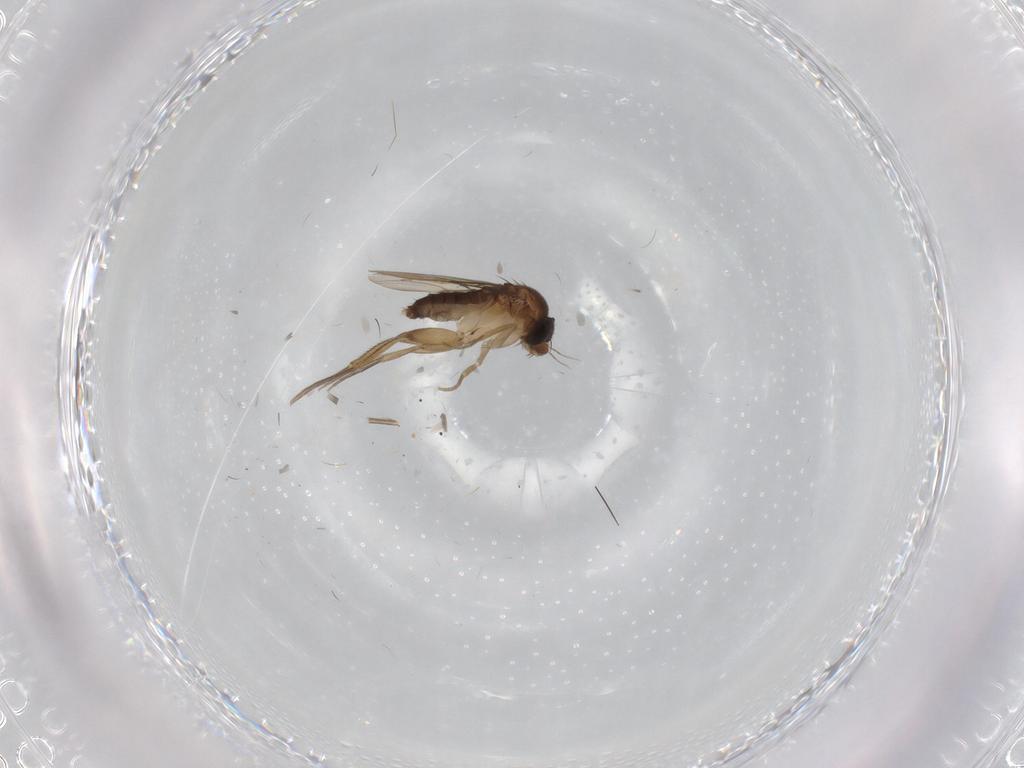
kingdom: Animalia
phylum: Arthropoda
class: Insecta
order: Diptera
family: Phoridae
